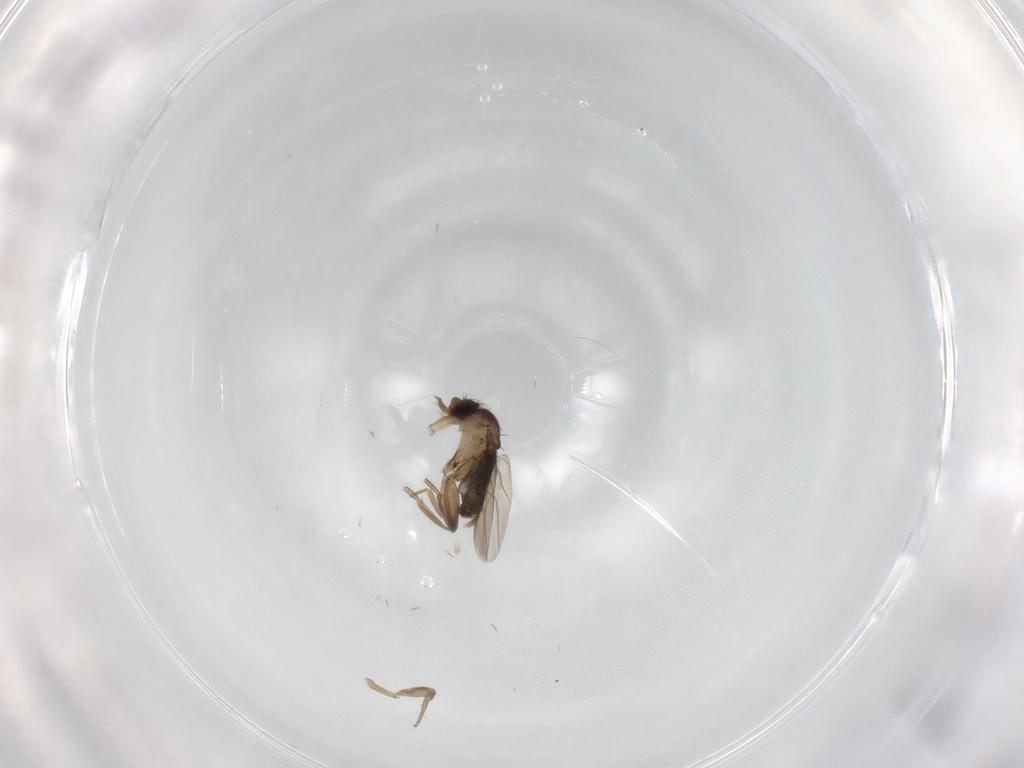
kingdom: Animalia
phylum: Arthropoda
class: Insecta
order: Diptera
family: Phoridae
